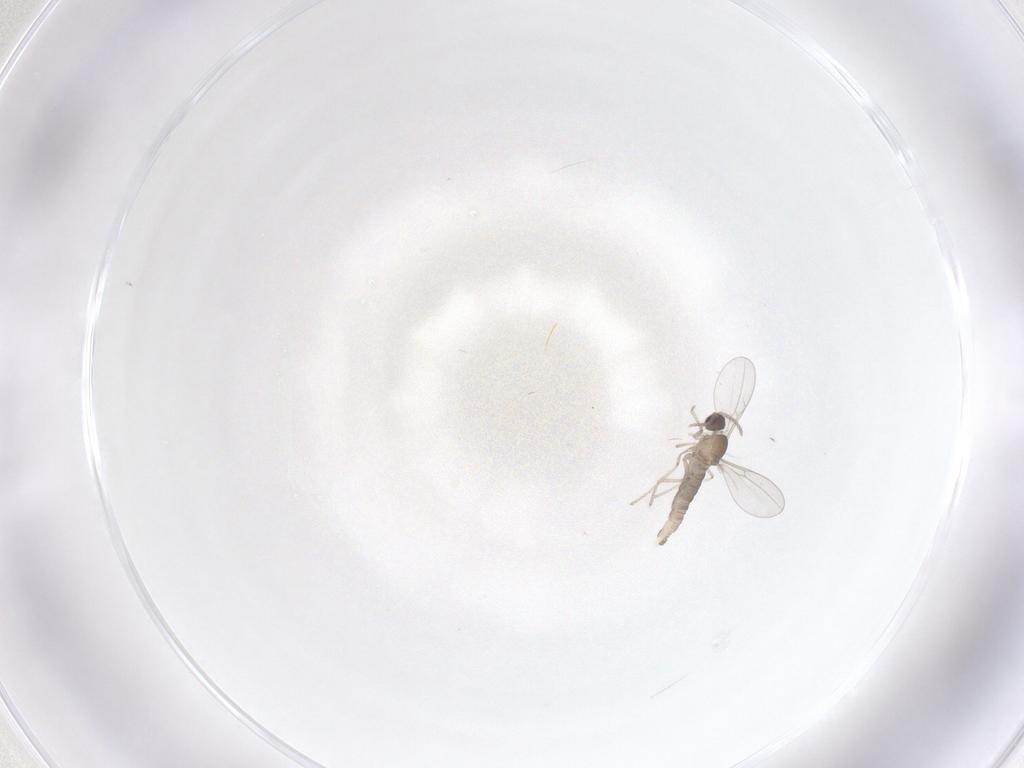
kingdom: Animalia
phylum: Arthropoda
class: Insecta
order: Diptera
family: Cecidomyiidae
